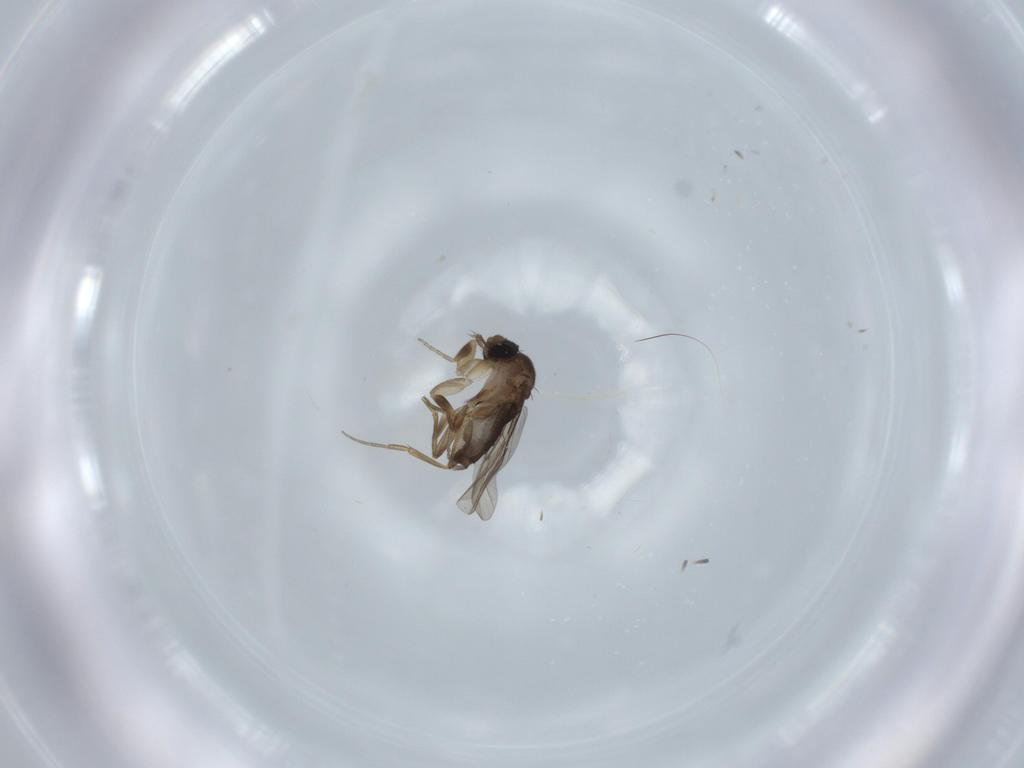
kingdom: Animalia
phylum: Arthropoda
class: Insecta
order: Diptera
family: Phoridae
